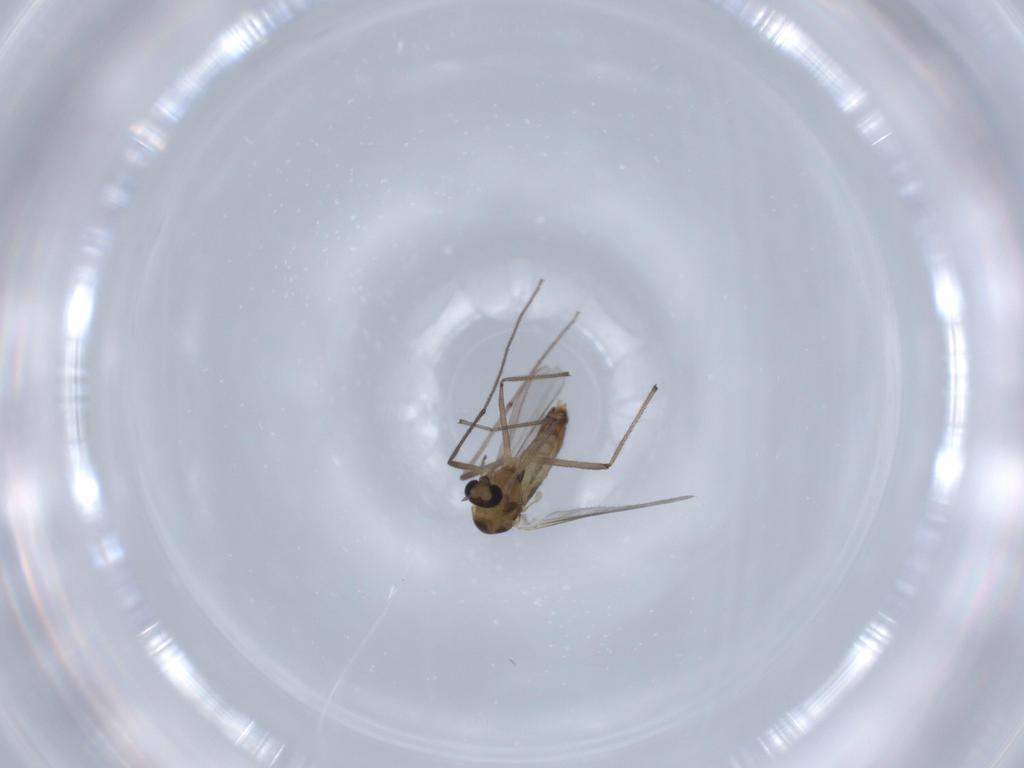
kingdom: Animalia
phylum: Arthropoda
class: Insecta
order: Diptera
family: Chironomidae
